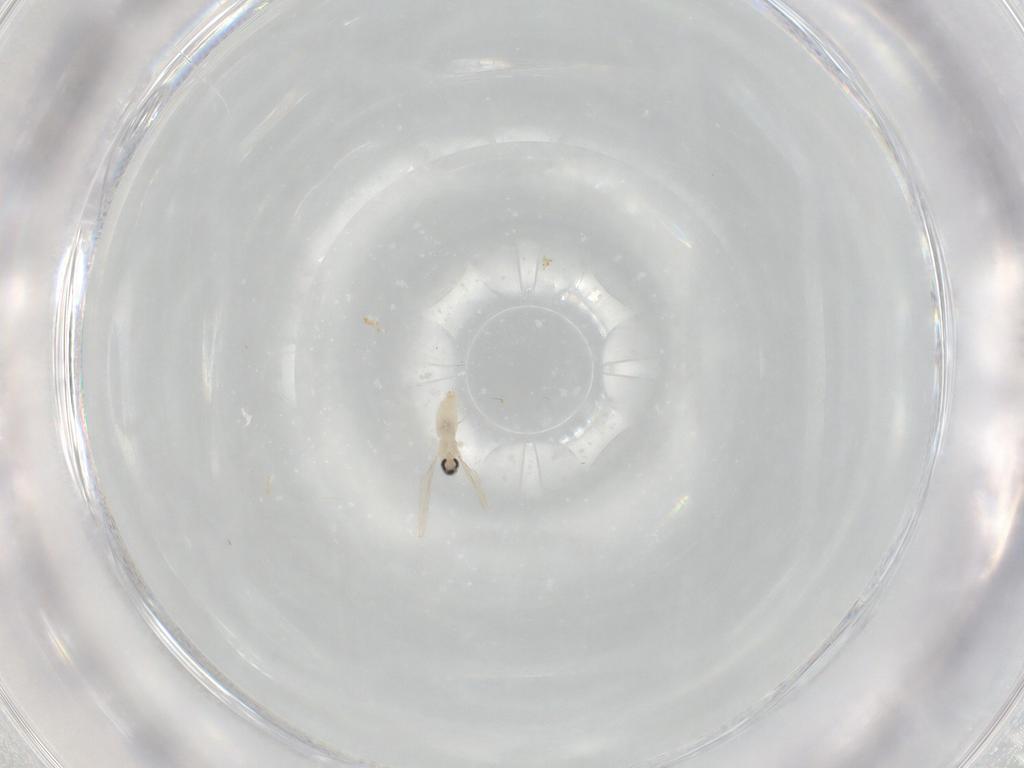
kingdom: Animalia
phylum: Arthropoda
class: Insecta
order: Diptera
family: Cecidomyiidae
